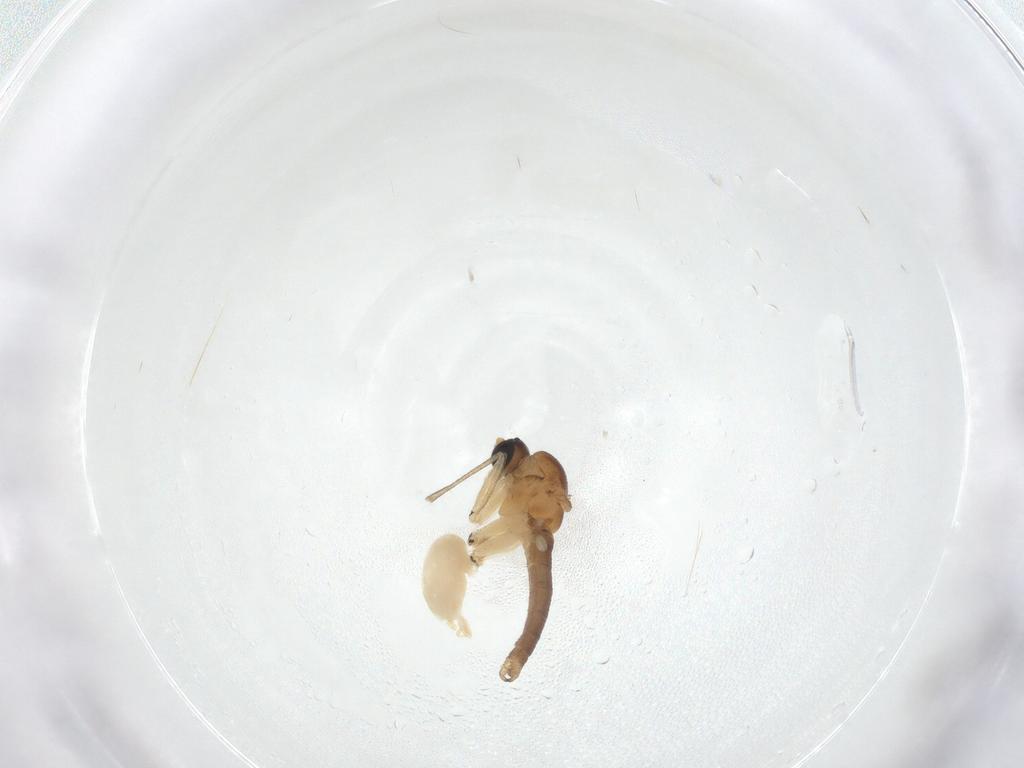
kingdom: Animalia
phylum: Arthropoda
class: Insecta
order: Diptera
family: Sciaridae
